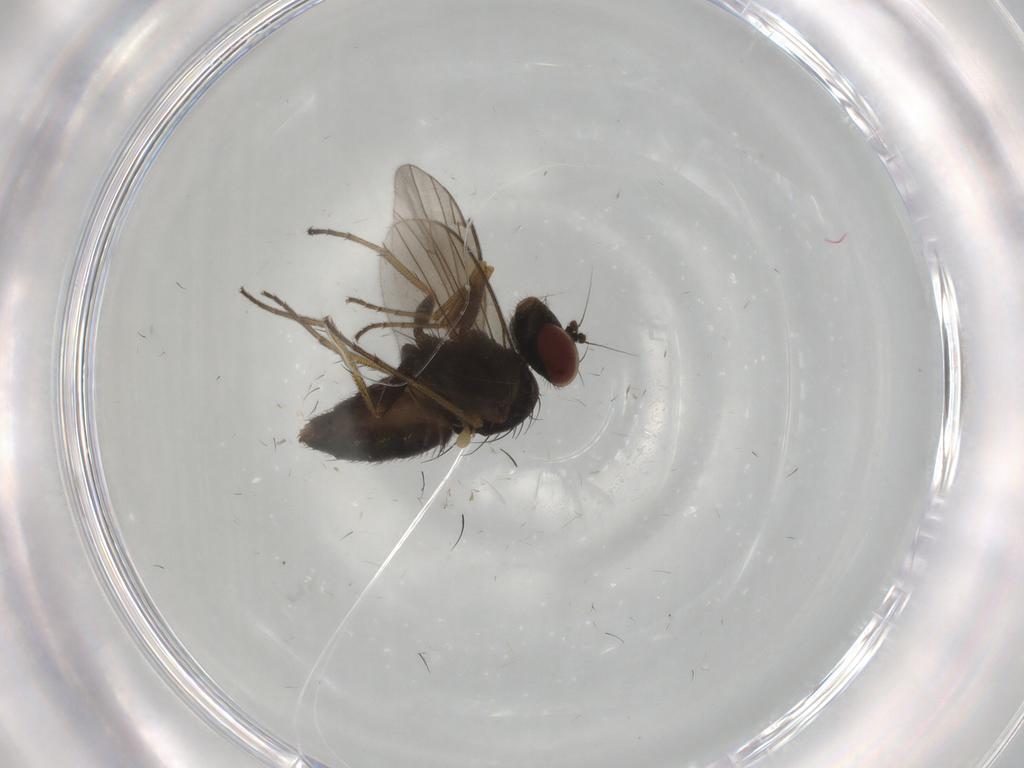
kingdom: Animalia
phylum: Arthropoda
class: Insecta
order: Diptera
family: Dolichopodidae
